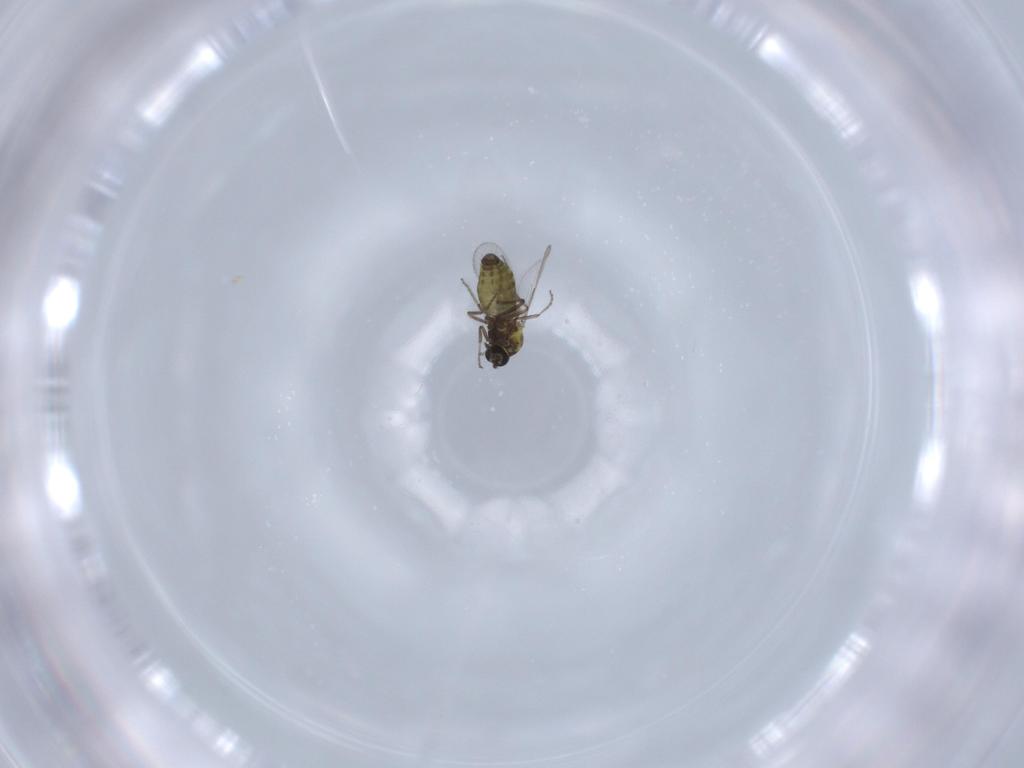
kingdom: Animalia
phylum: Arthropoda
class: Insecta
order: Diptera
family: Ceratopogonidae
